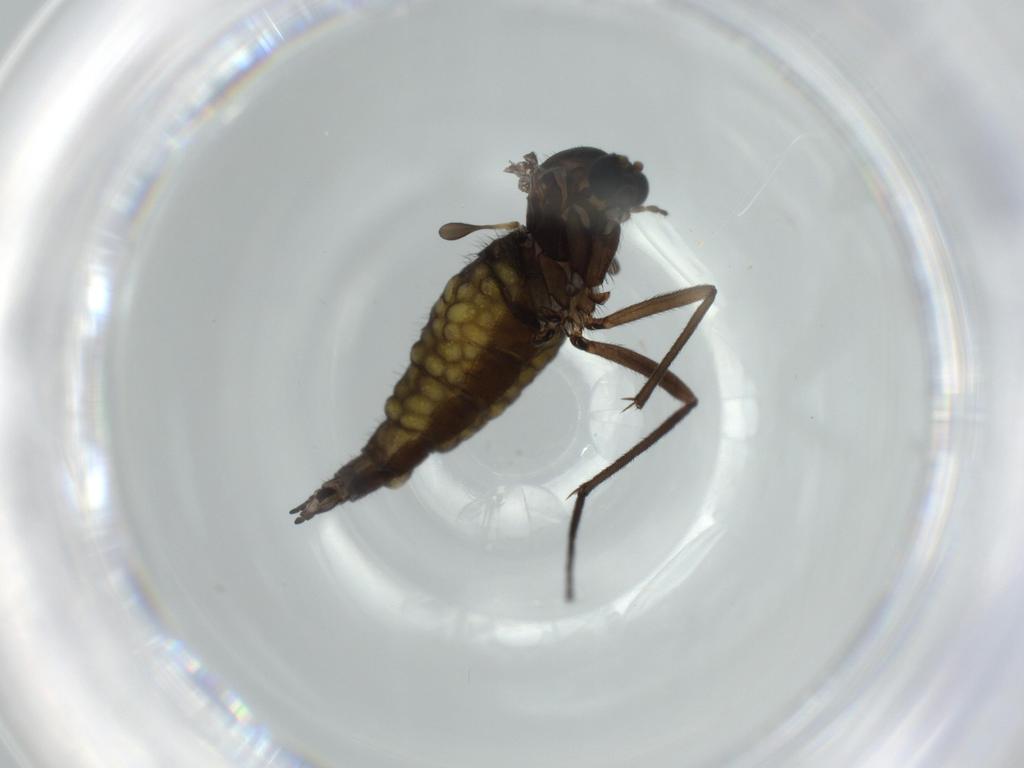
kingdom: Animalia
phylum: Arthropoda
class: Insecta
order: Diptera
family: Sciaridae
